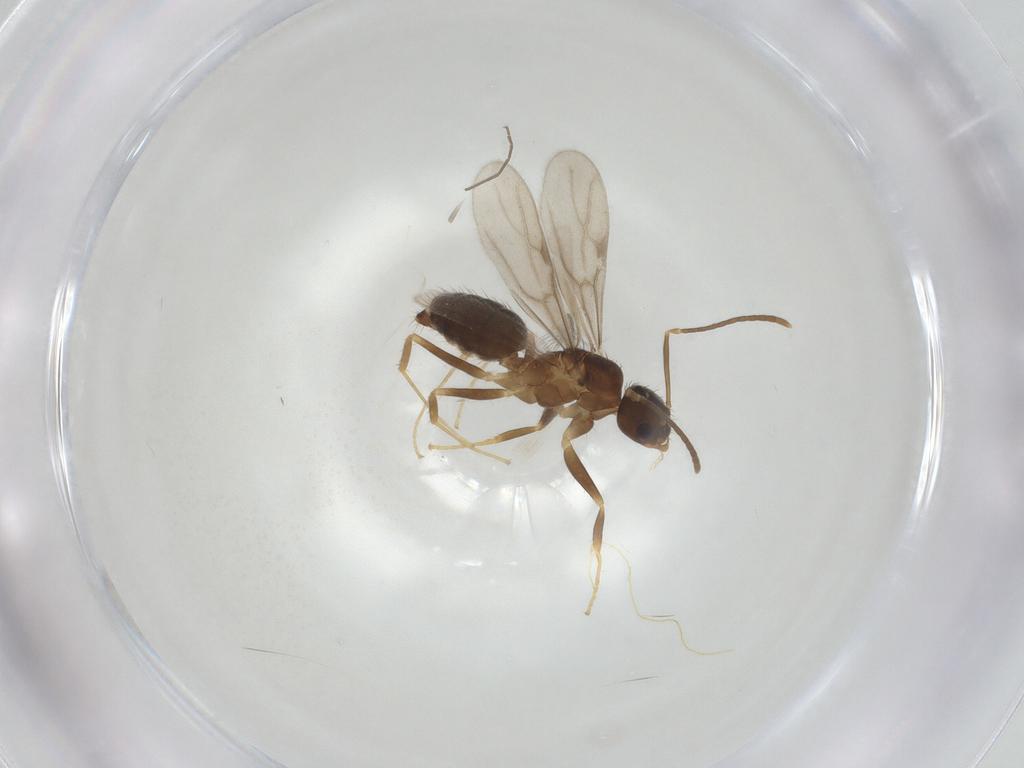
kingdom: Animalia
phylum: Arthropoda
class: Insecta
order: Hymenoptera
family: Formicidae
